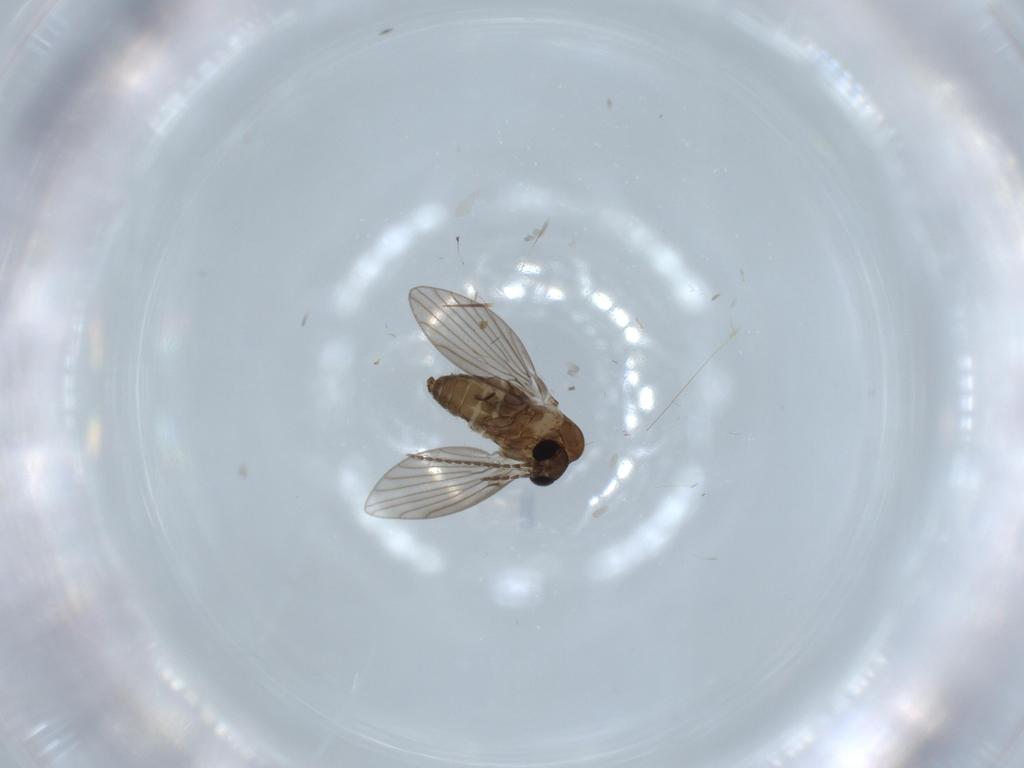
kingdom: Animalia
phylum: Arthropoda
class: Insecta
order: Diptera
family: Psychodidae
